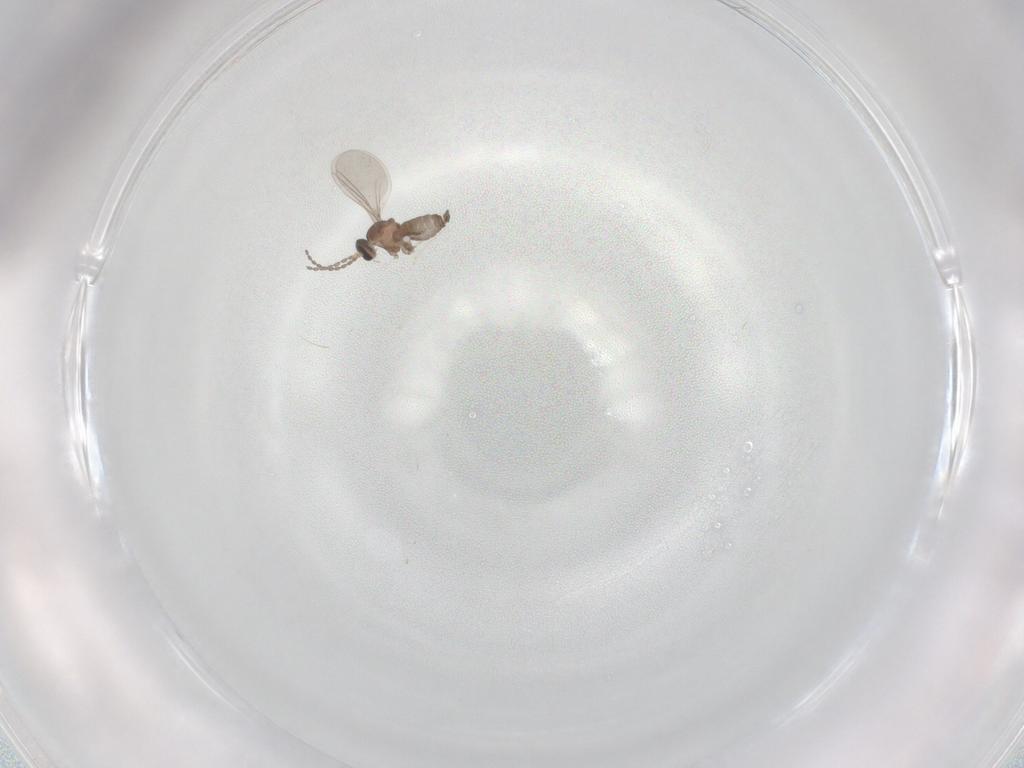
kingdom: Animalia
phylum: Arthropoda
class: Insecta
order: Diptera
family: Cecidomyiidae
